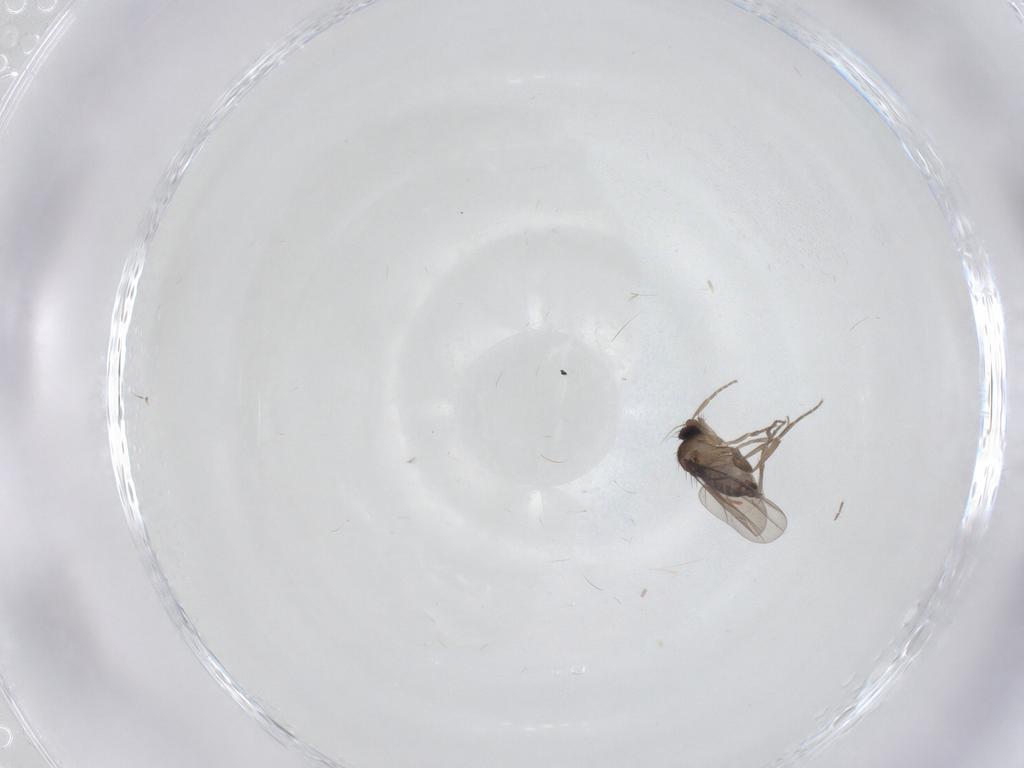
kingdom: Animalia
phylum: Arthropoda
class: Insecta
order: Diptera
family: Phoridae
